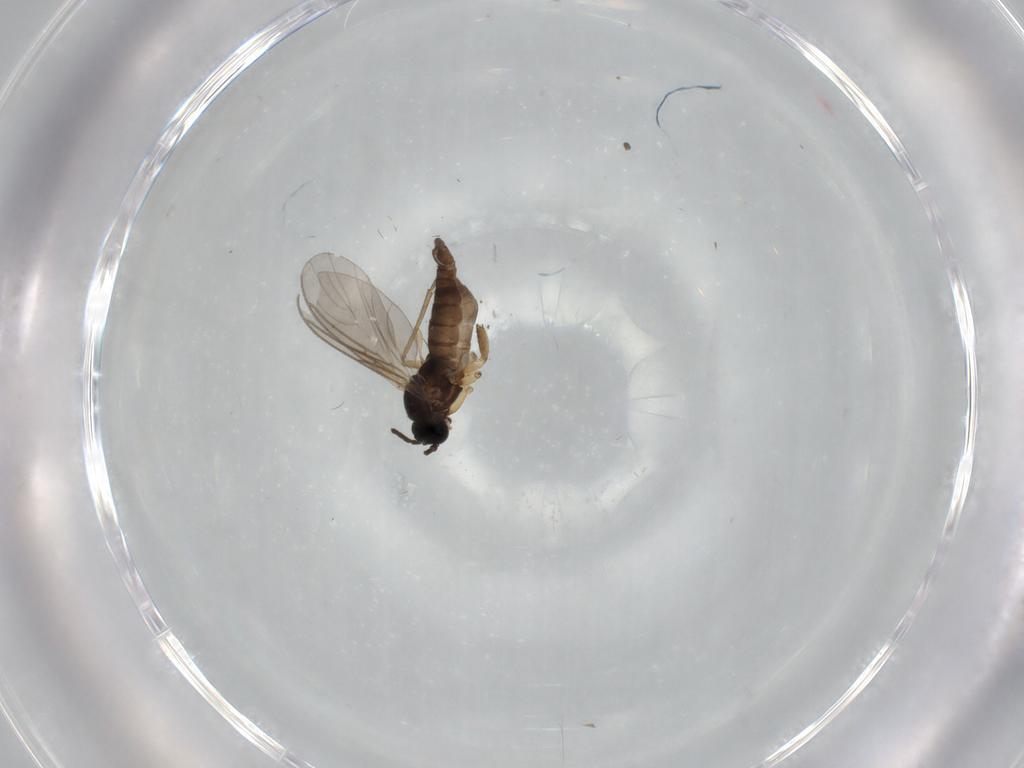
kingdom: Animalia
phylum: Arthropoda
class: Insecta
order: Diptera
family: Sciaridae
